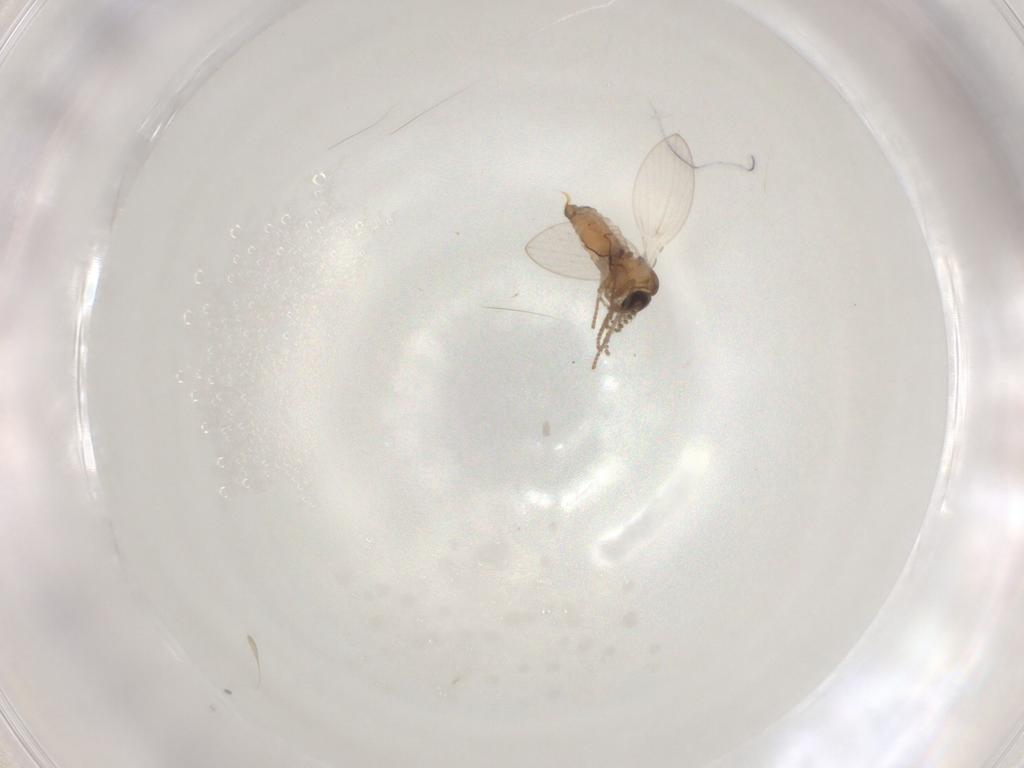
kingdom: Animalia
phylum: Arthropoda
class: Insecta
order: Diptera
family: Psychodidae
